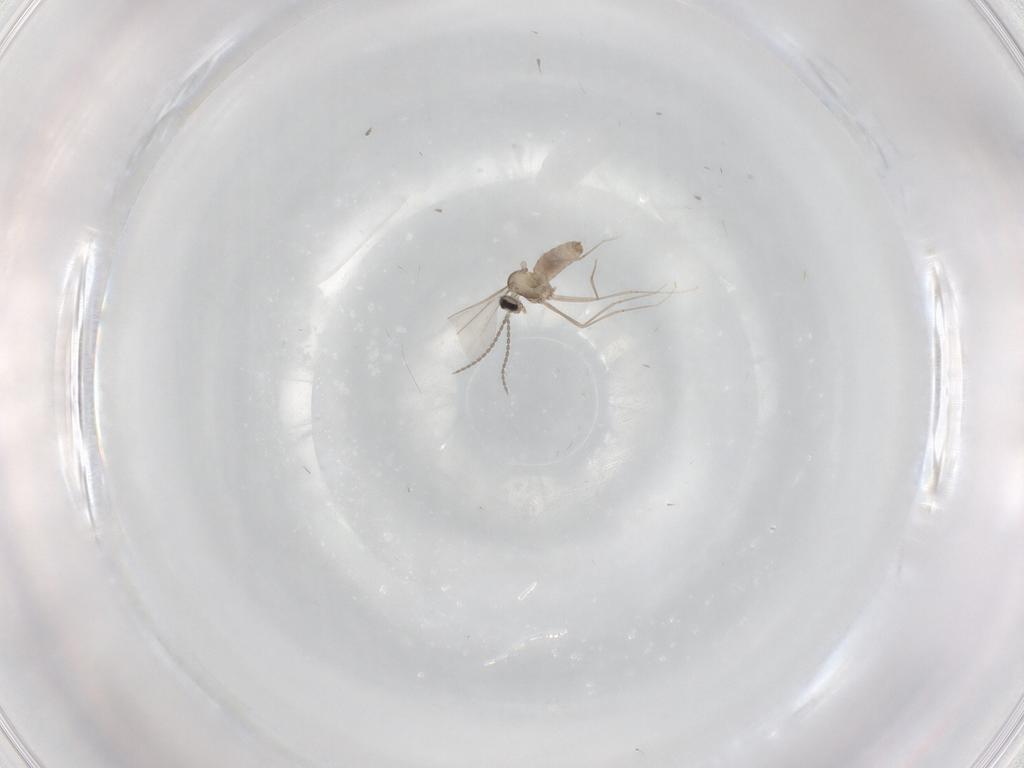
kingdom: Animalia
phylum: Arthropoda
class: Insecta
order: Diptera
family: Cecidomyiidae
